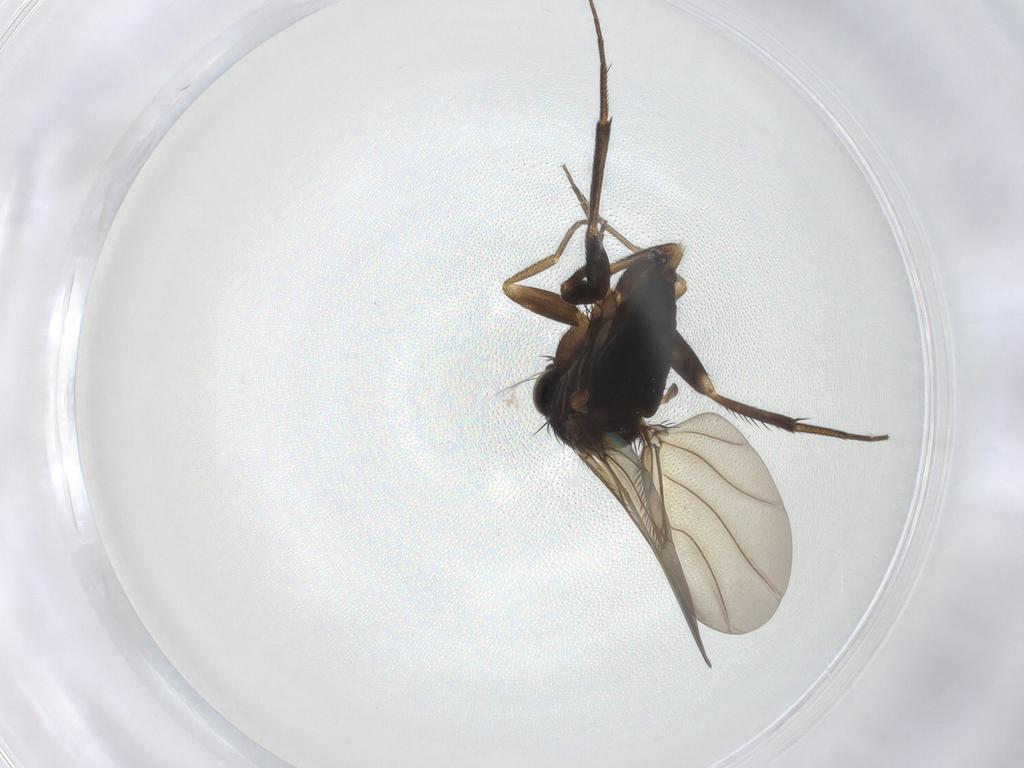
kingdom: Animalia
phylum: Arthropoda
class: Insecta
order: Diptera
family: Phoridae
